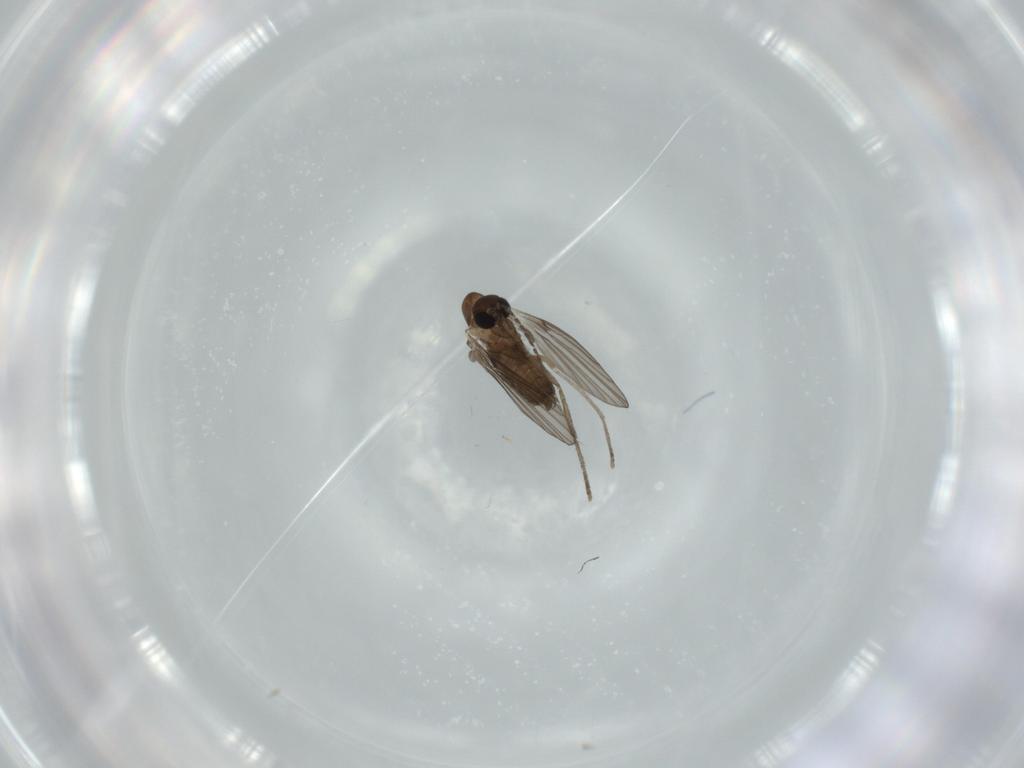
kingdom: Animalia
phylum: Arthropoda
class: Insecta
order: Diptera
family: Psychodidae
